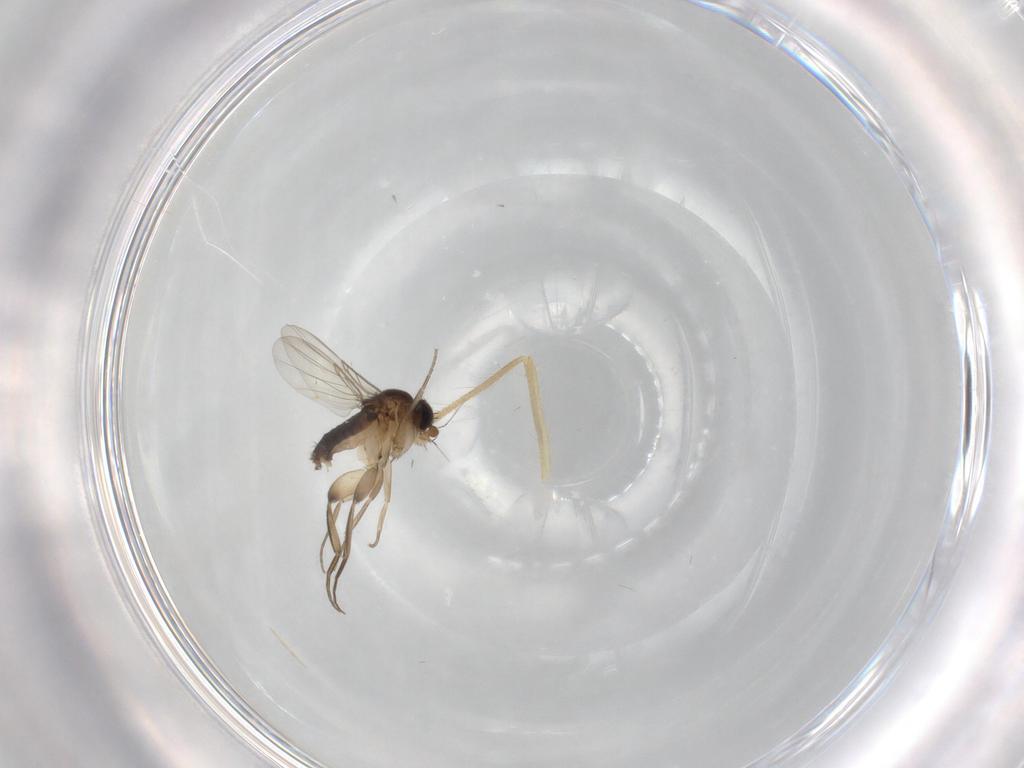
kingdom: Animalia
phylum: Arthropoda
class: Insecta
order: Diptera
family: Phoridae
